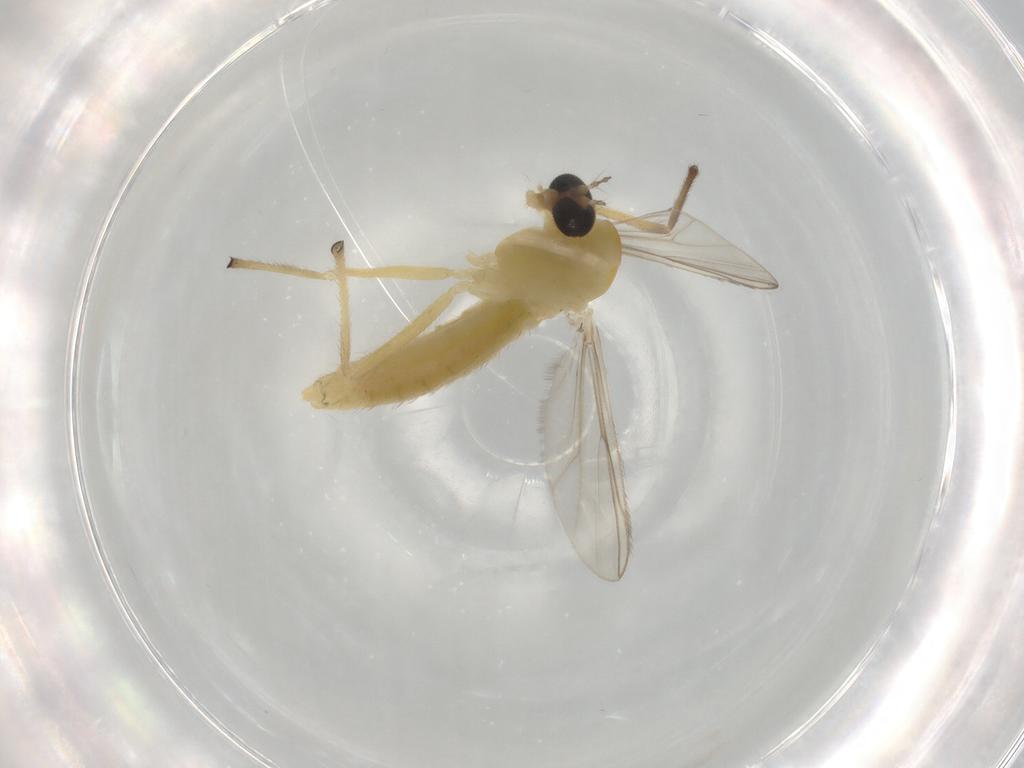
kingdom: Animalia
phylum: Arthropoda
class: Insecta
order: Diptera
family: Chironomidae
